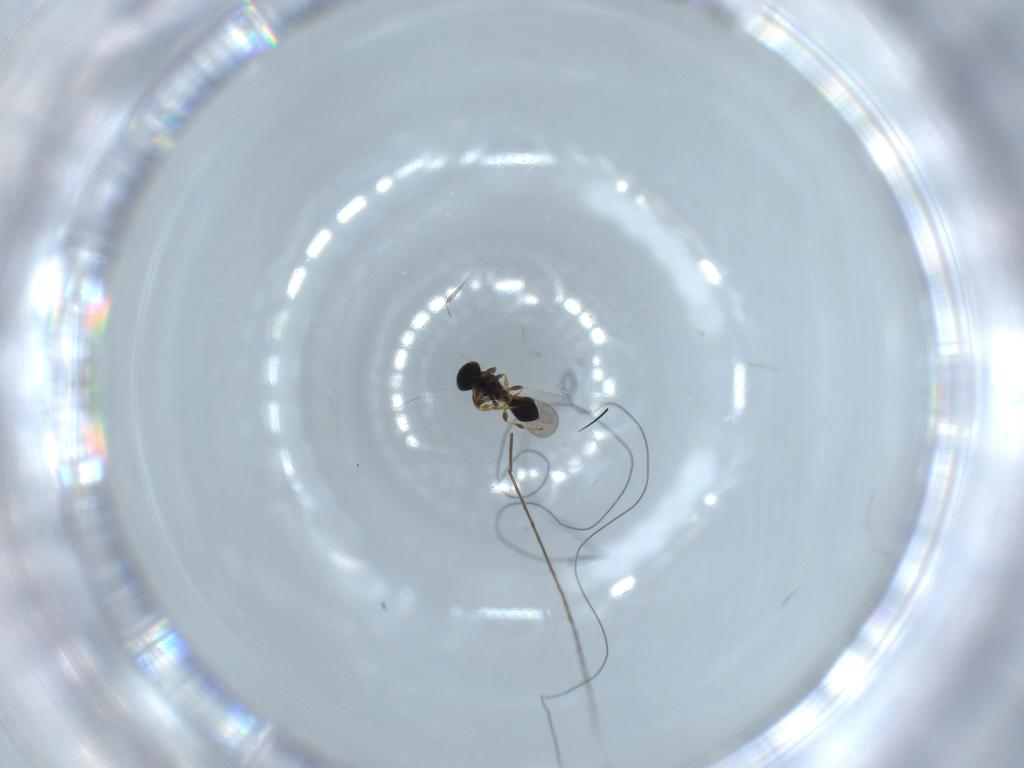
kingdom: Animalia
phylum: Arthropoda
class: Insecta
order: Hymenoptera
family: Platygastridae
